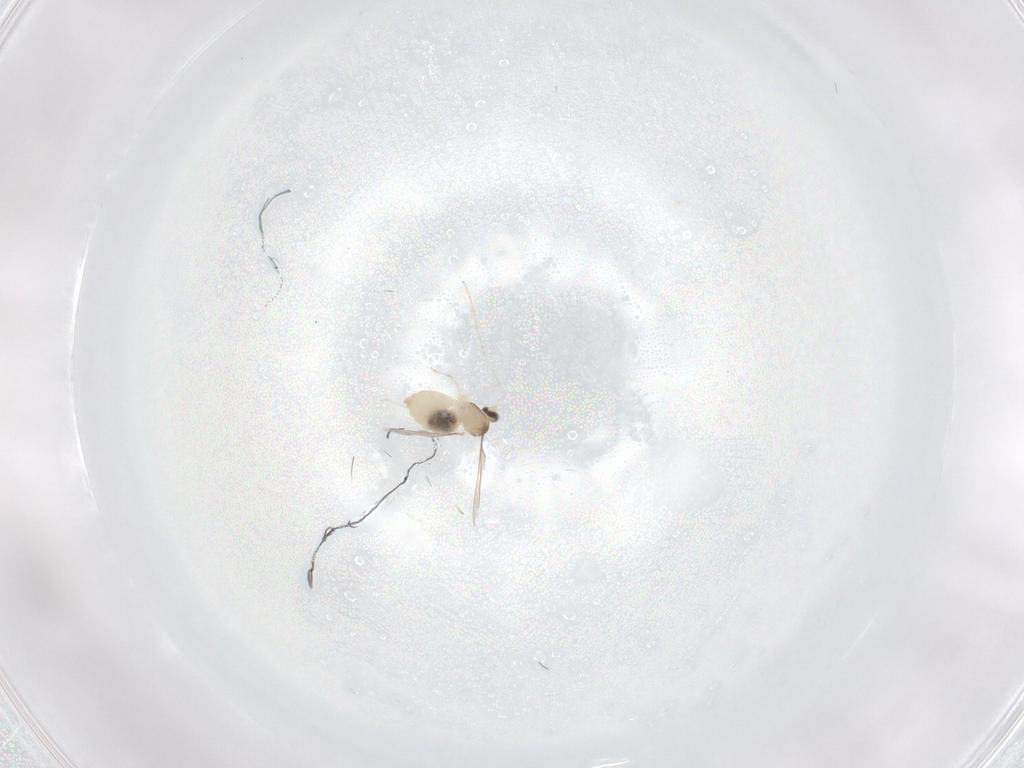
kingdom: Animalia
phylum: Arthropoda
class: Insecta
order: Diptera
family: Cecidomyiidae
